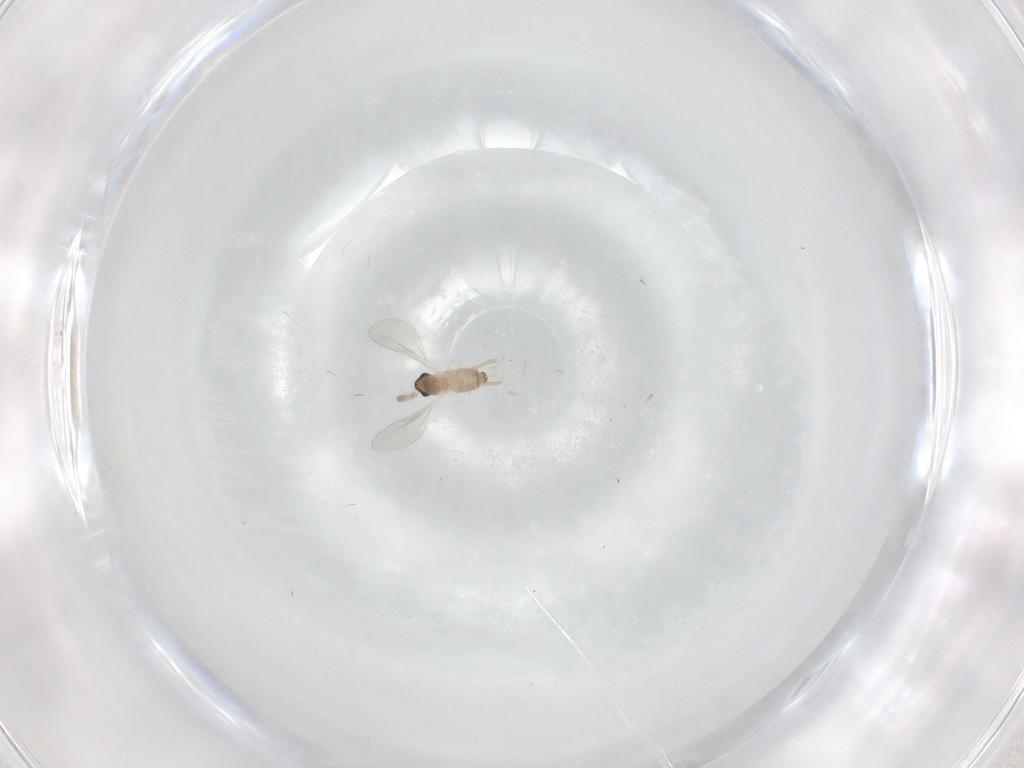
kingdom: Animalia
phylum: Arthropoda
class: Insecta
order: Diptera
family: Cecidomyiidae
